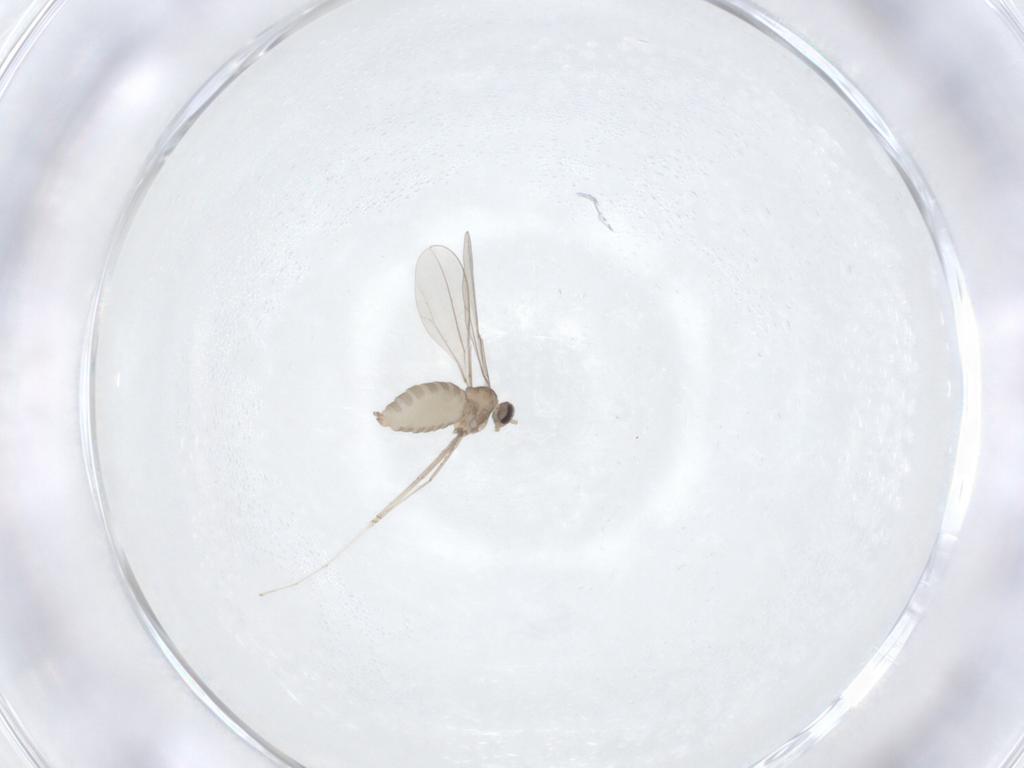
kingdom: Animalia
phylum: Arthropoda
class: Insecta
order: Diptera
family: Cecidomyiidae
